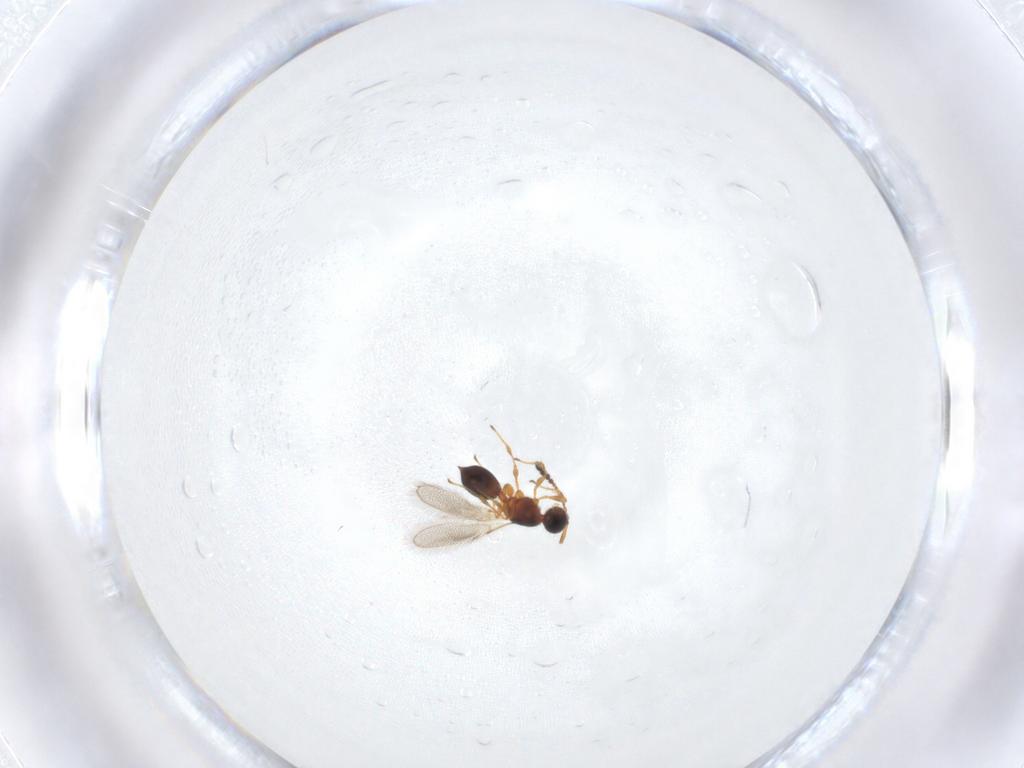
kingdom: Animalia
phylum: Arthropoda
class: Insecta
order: Hymenoptera
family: Diapriidae
